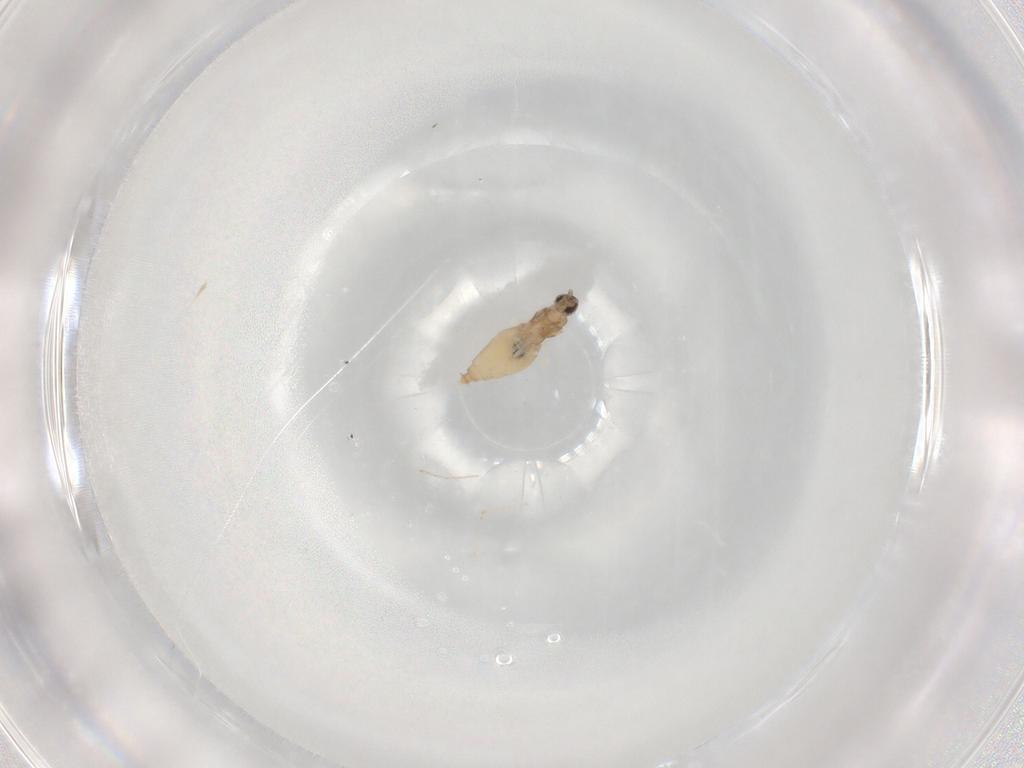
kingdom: Animalia
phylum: Arthropoda
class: Insecta
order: Diptera
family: Cecidomyiidae
